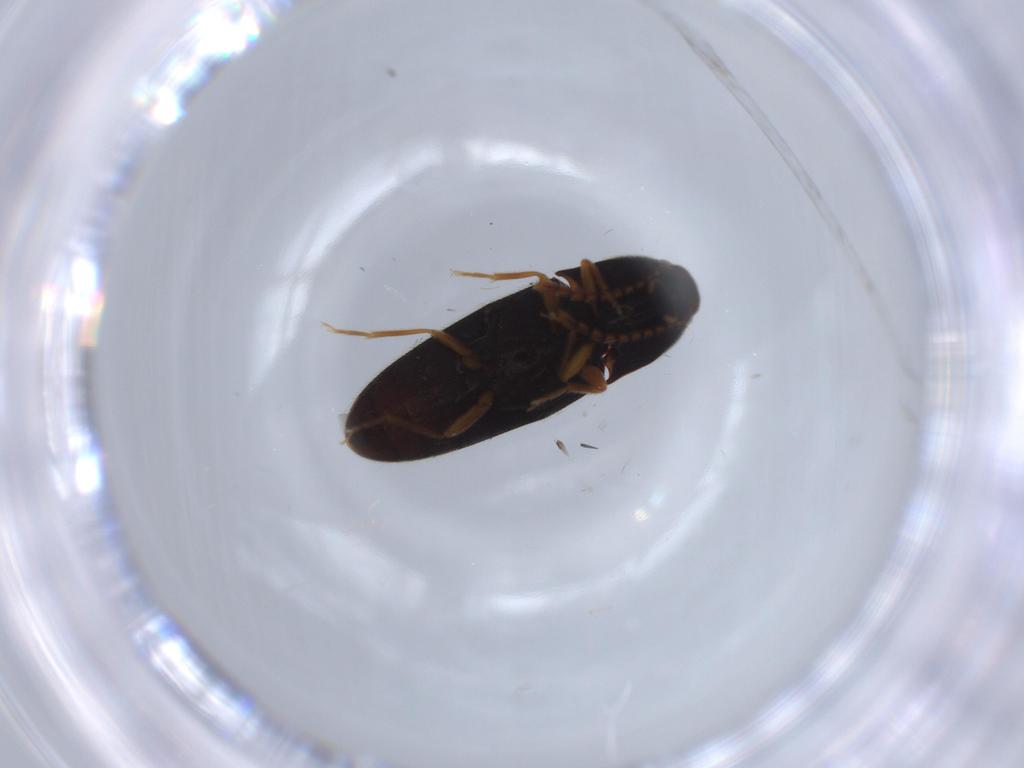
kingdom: Animalia
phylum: Arthropoda
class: Insecta
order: Coleoptera
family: Elateridae
